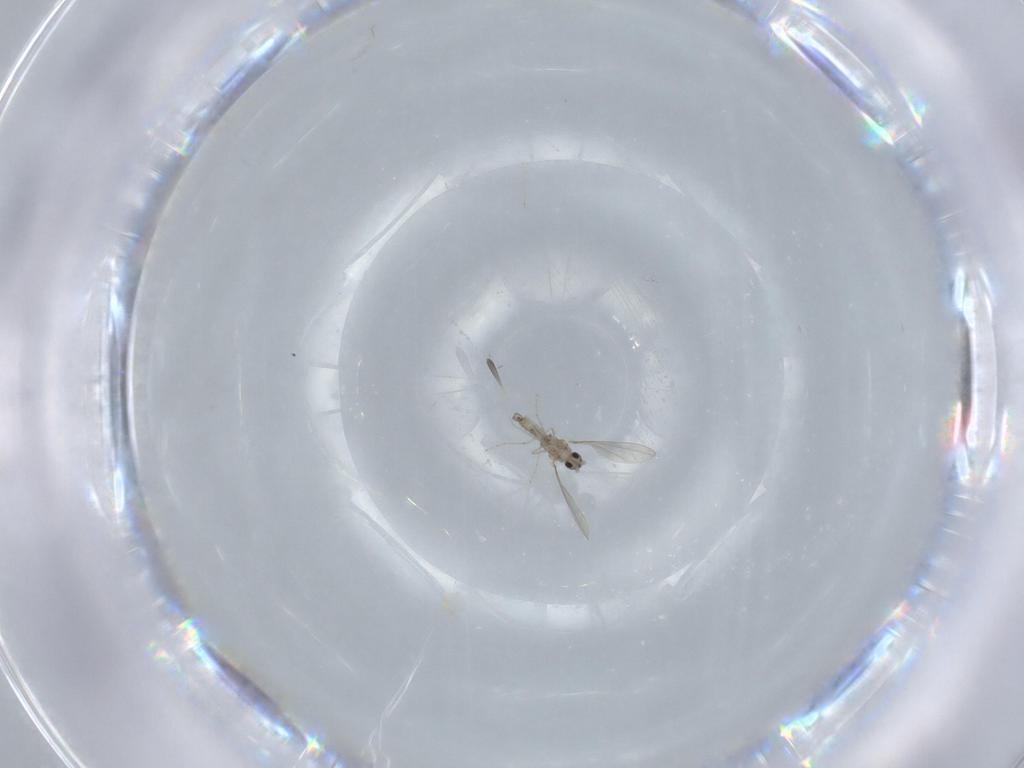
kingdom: Animalia
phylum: Arthropoda
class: Insecta
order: Diptera
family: Cecidomyiidae
